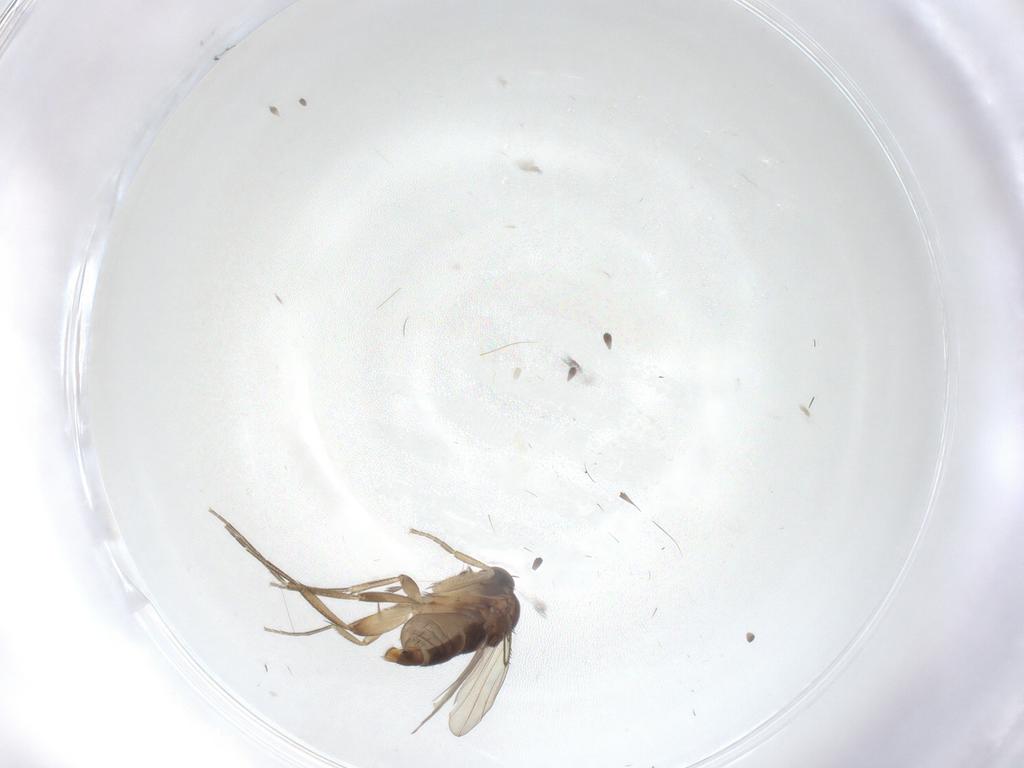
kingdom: Animalia
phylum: Arthropoda
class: Insecta
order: Diptera
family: Phoridae
